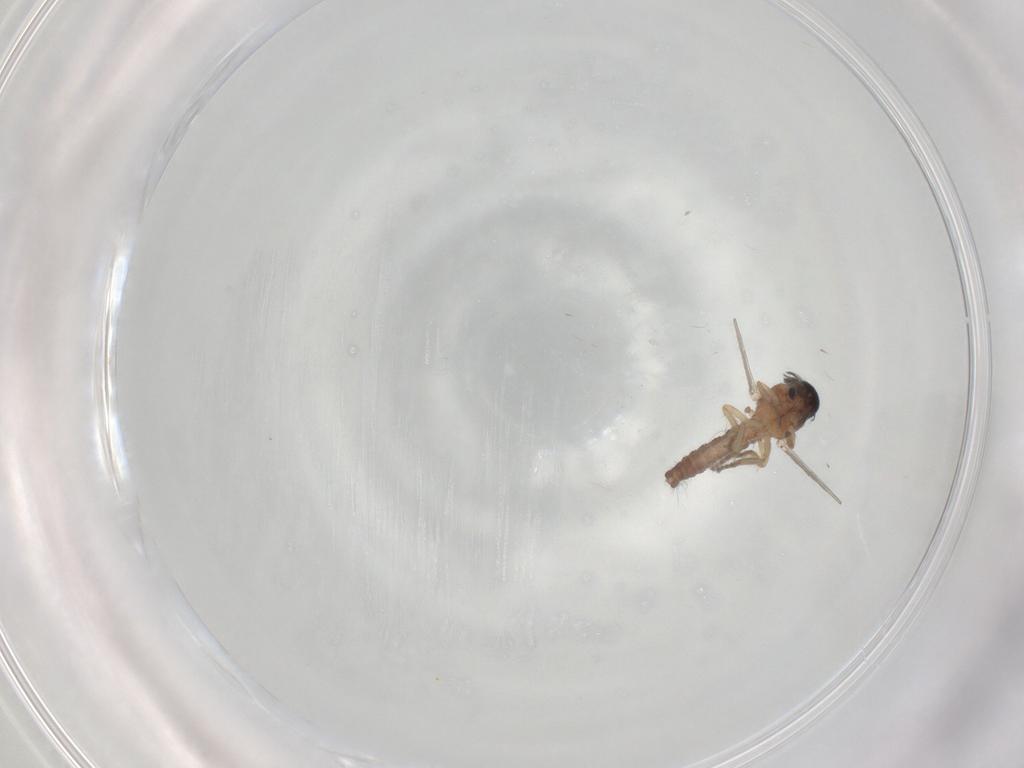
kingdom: Animalia
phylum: Arthropoda
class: Insecta
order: Diptera
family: Ceratopogonidae
